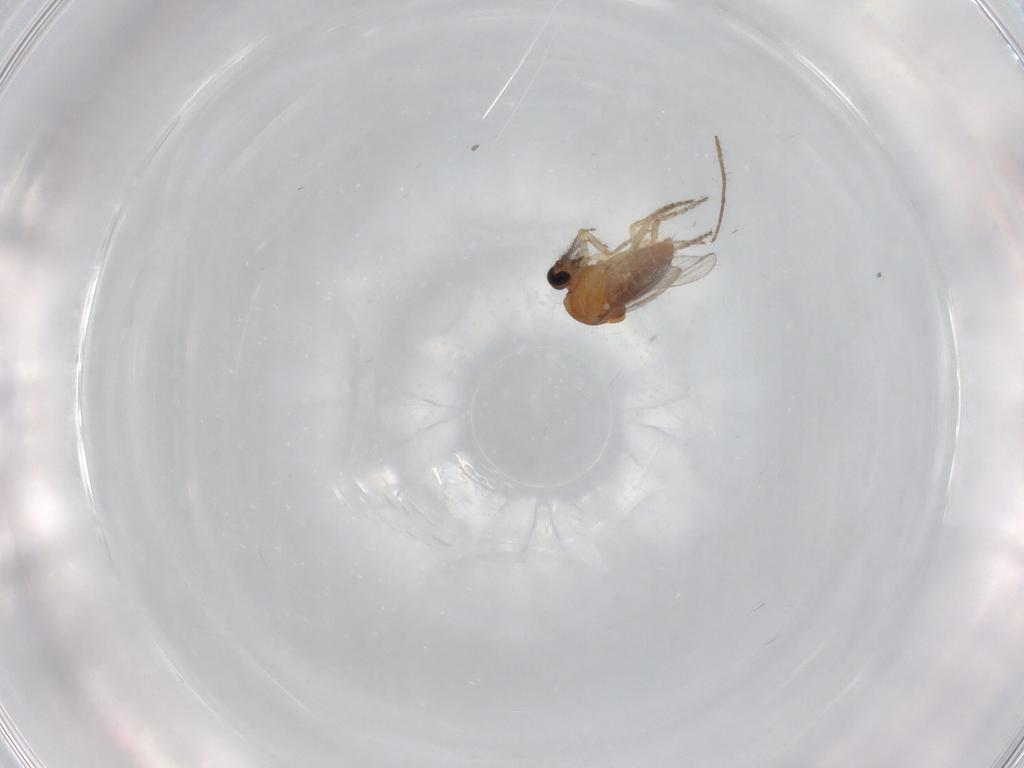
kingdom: Animalia
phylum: Arthropoda
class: Insecta
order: Diptera
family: Ceratopogonidae
